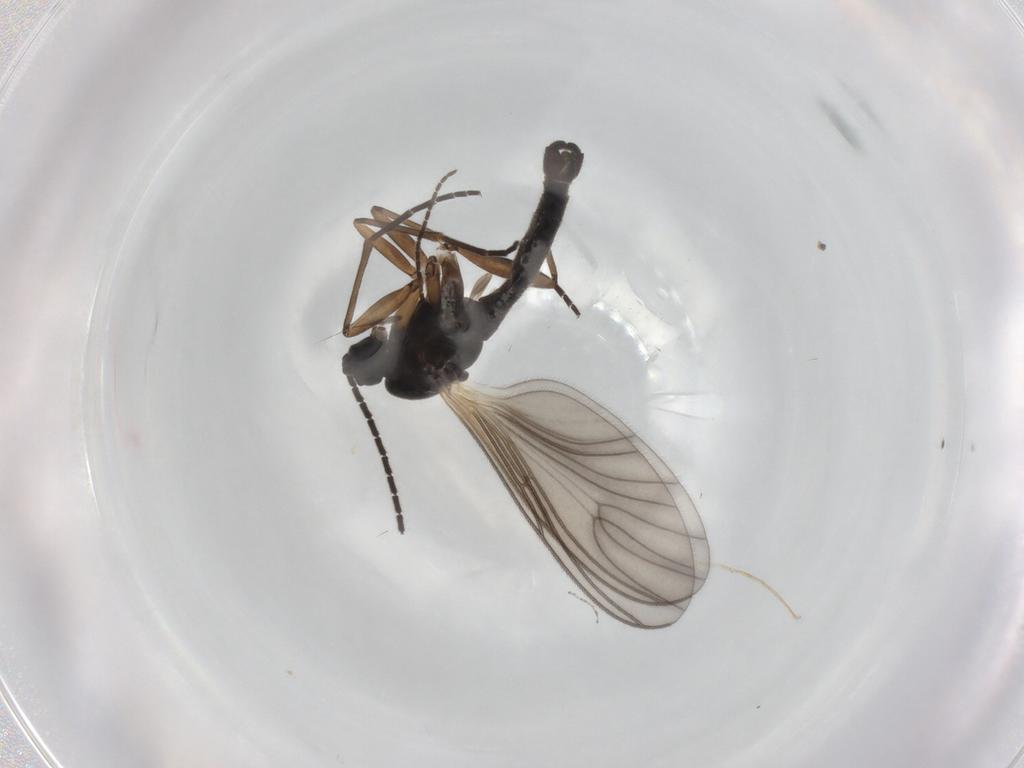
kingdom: Animalia
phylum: Arthropoda
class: Insecta
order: Diptera
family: Sciaridae
